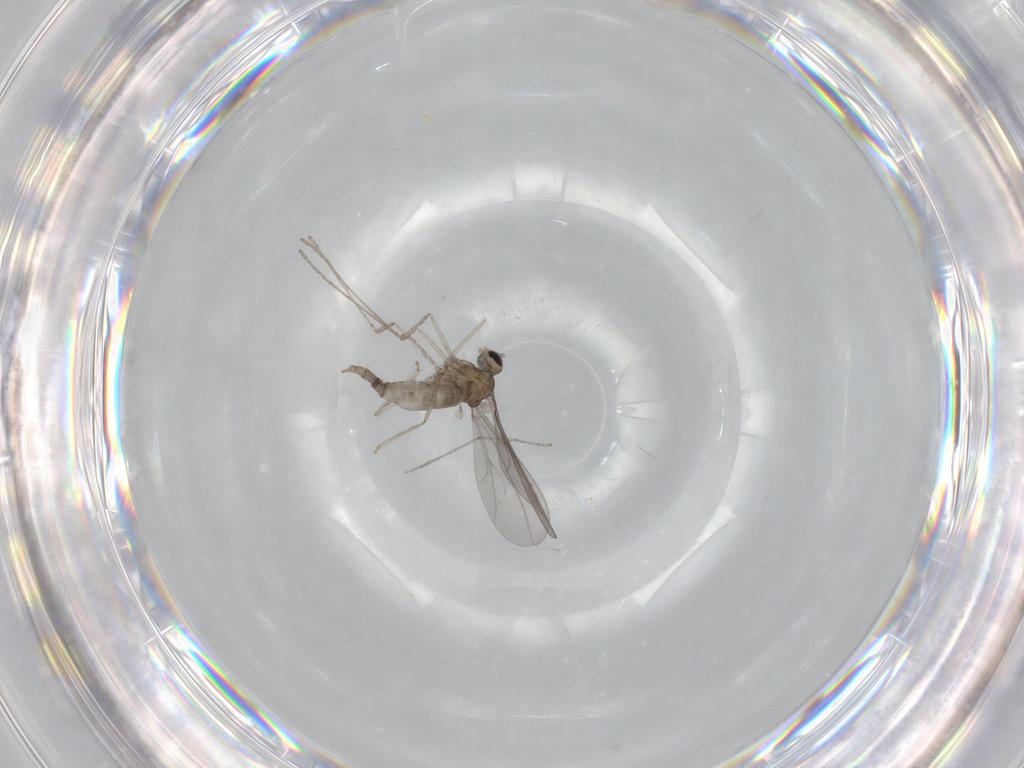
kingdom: Animalia
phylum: Arthropoda
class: Insecta
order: Diptera
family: Cecidomyiidae
